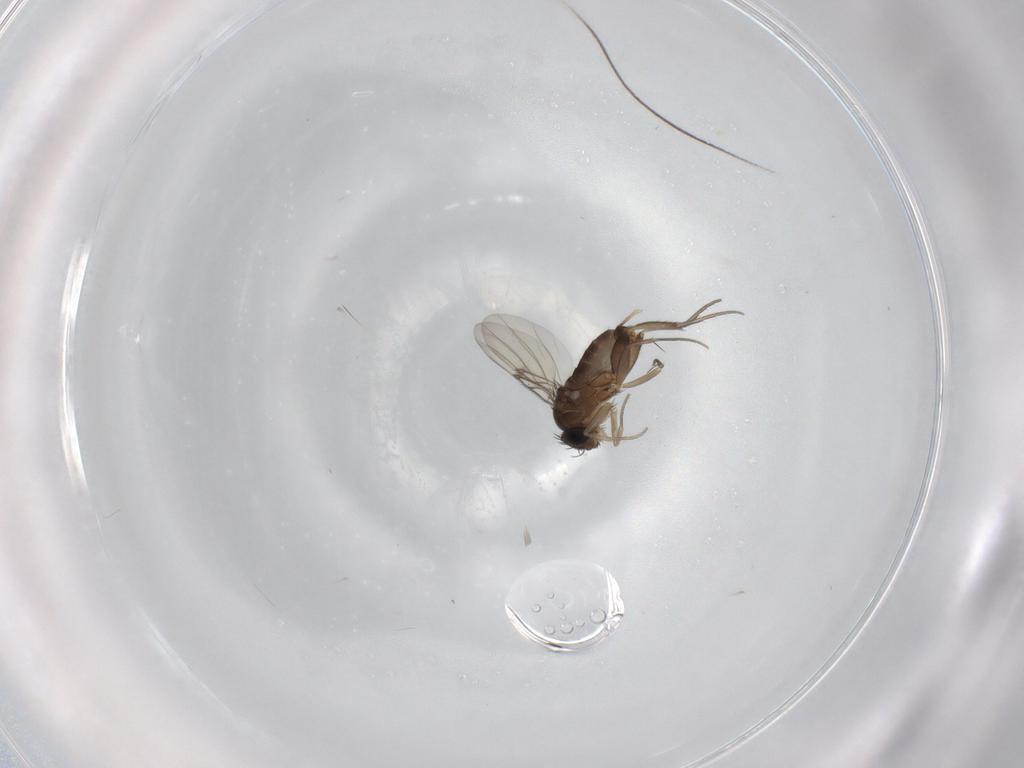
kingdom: Animalia
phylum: Arthropoda
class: Insecta
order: Diptera
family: Phoridae
